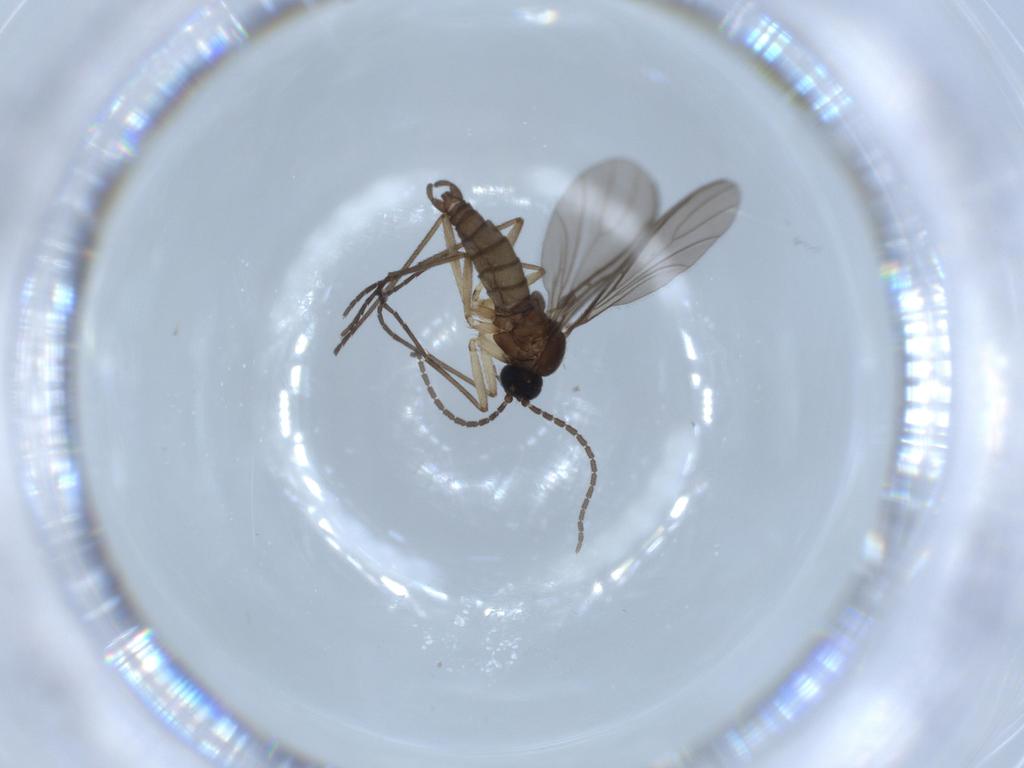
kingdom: Animalia
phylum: Arthropoda
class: Insecta
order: Diptera
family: Sciaridae
